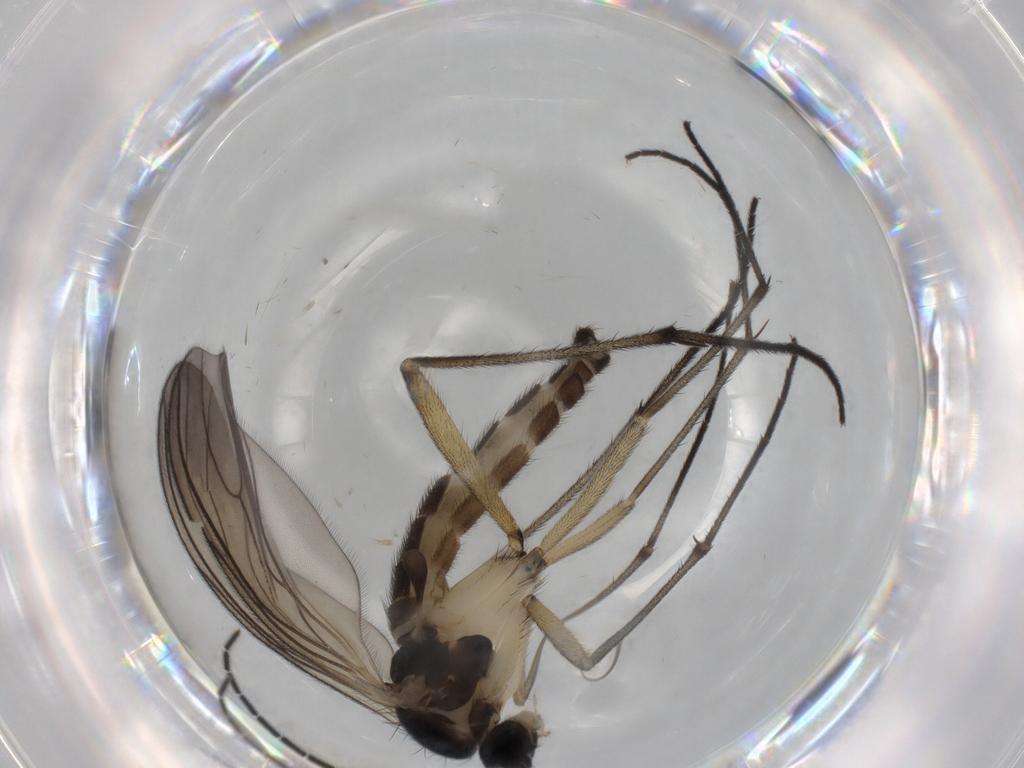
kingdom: Animalia
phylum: Arthropoda
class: Insecta
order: Diptera
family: Sciaridae
